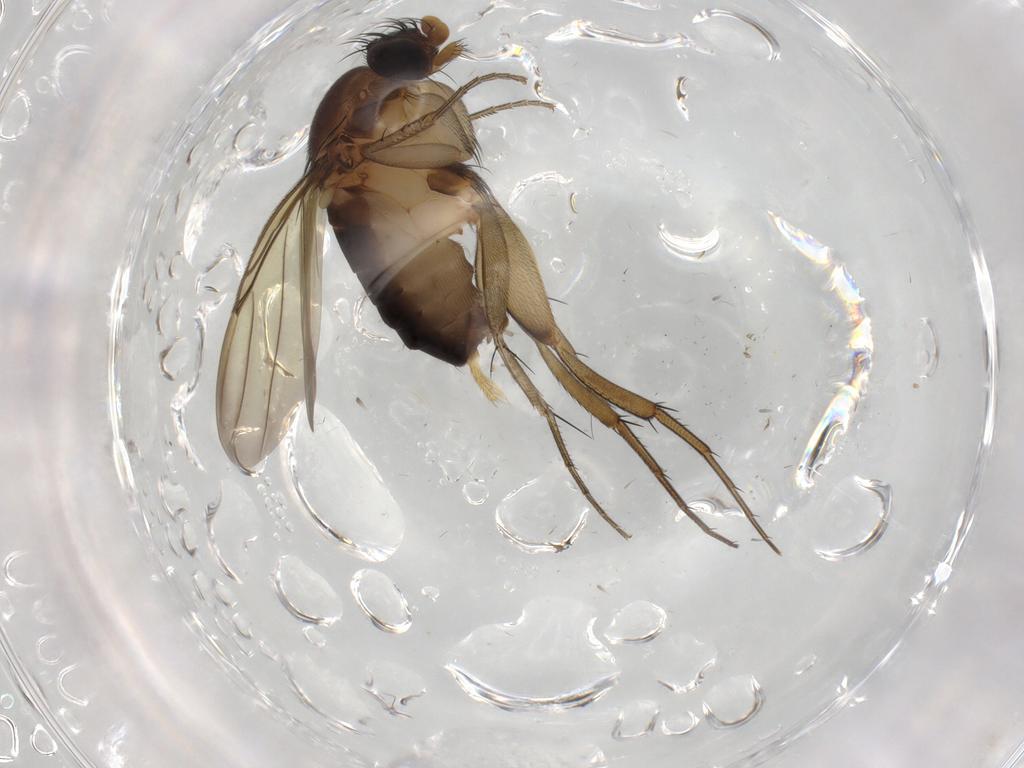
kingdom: Animalia
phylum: Arthropoda
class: Insecta
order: Diptera
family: Ephydridae
